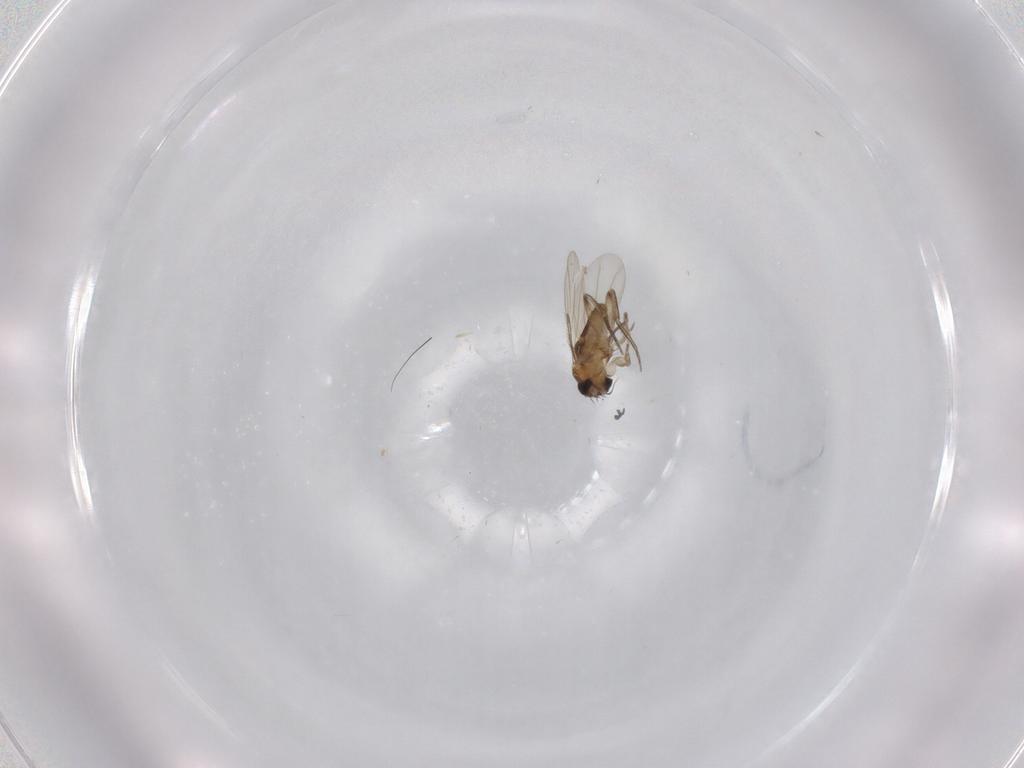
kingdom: Animalia
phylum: Arthropoda
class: Insecta
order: Diptera
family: Phoridae
